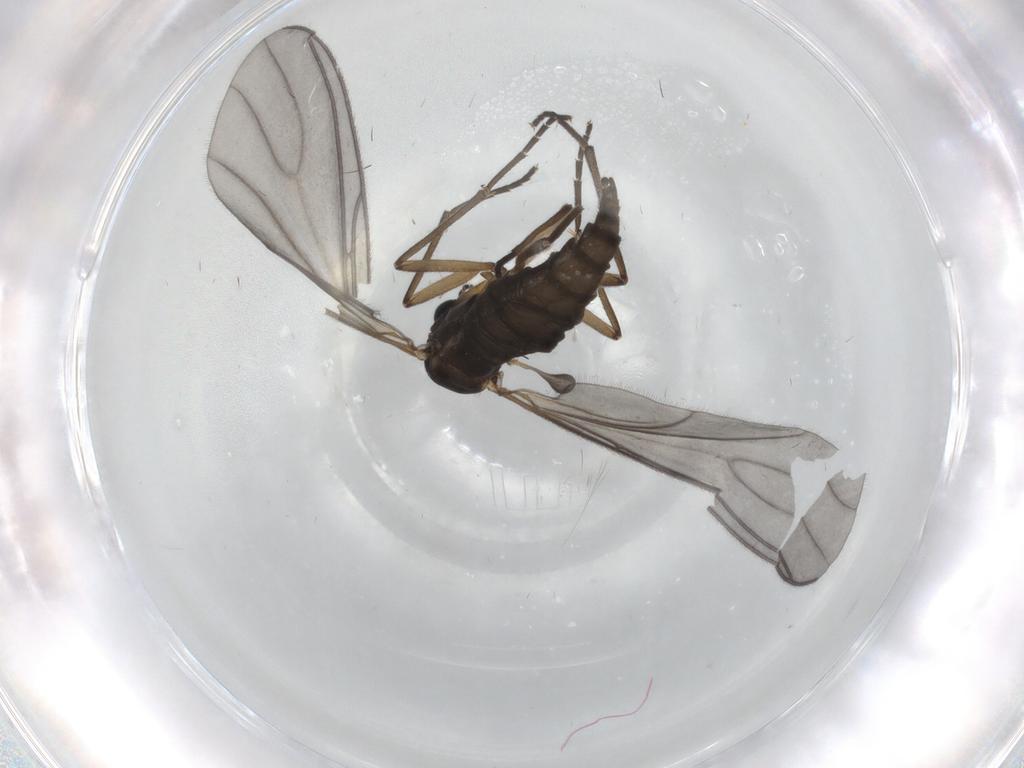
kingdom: Animalia
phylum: Arthropoda
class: Insecta
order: Diptera
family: Sciaridae
